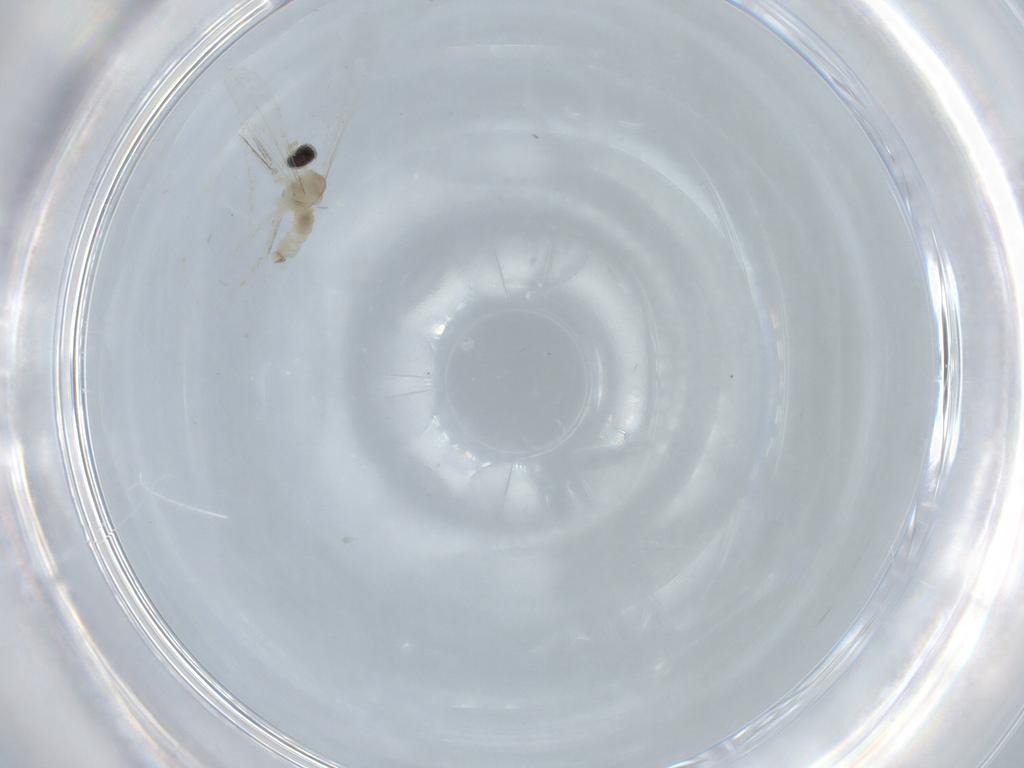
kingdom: Animalia
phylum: Arthropoda
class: Insecta
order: Diptera
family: Cecidomyiidae
